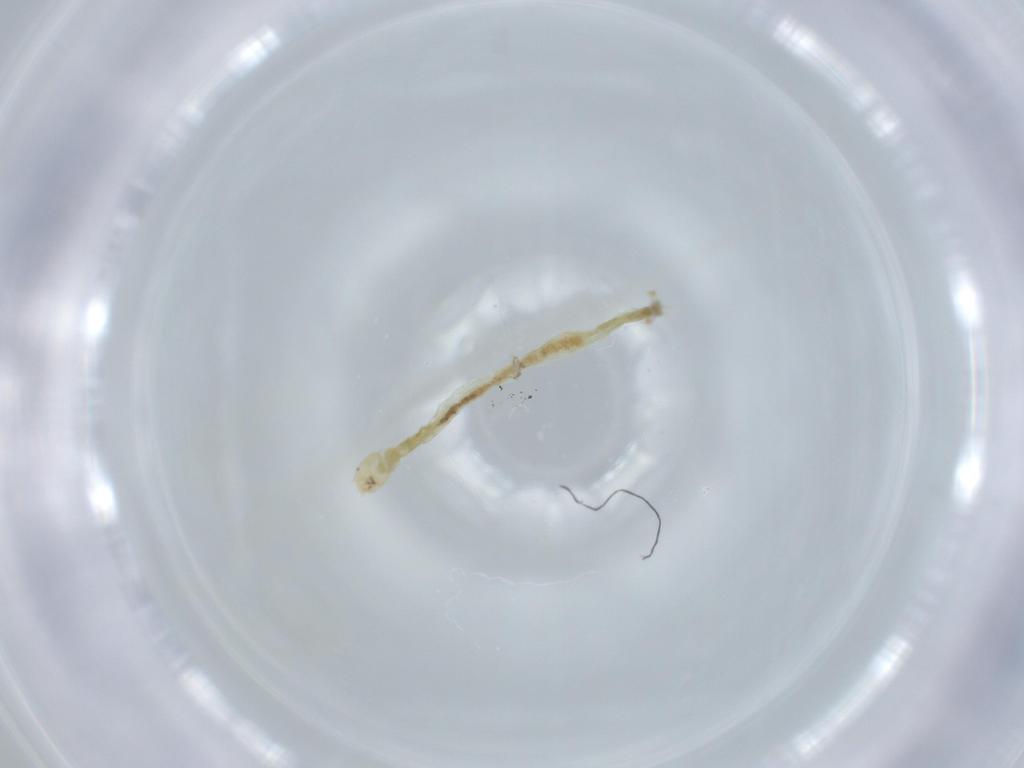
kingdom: Animalia
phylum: Arthropoda
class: Insecta
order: Diptera
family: Chironomidae
